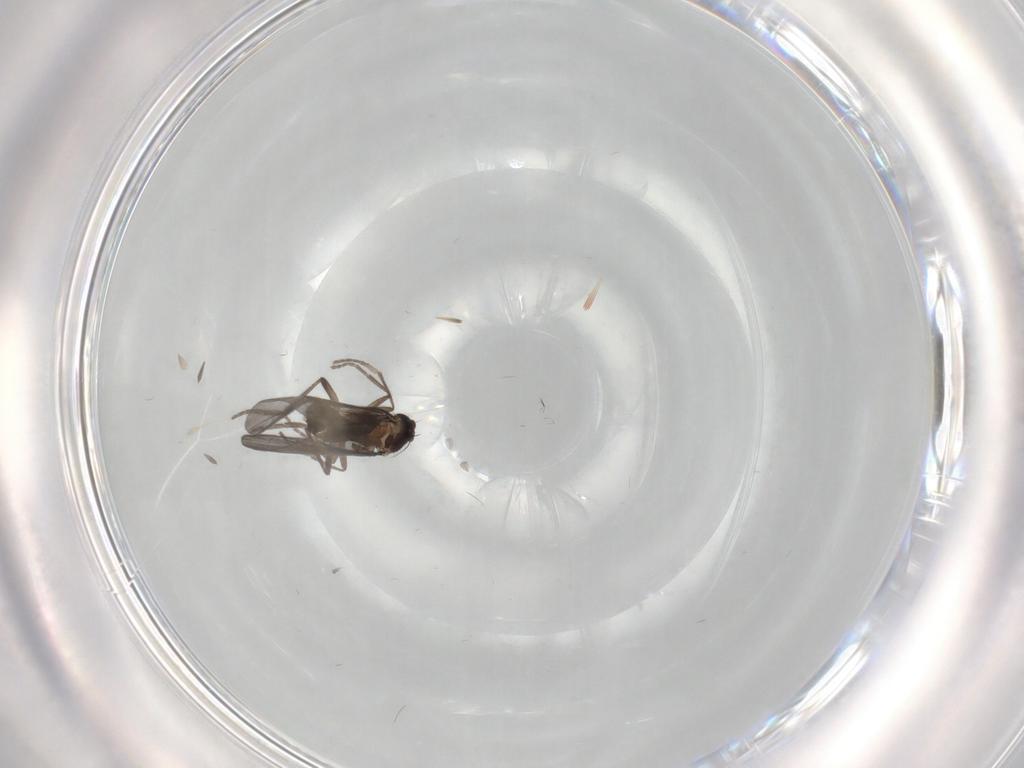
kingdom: Animalia
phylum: Arthropoda
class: Insecta
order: Diptera
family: Phoridae
